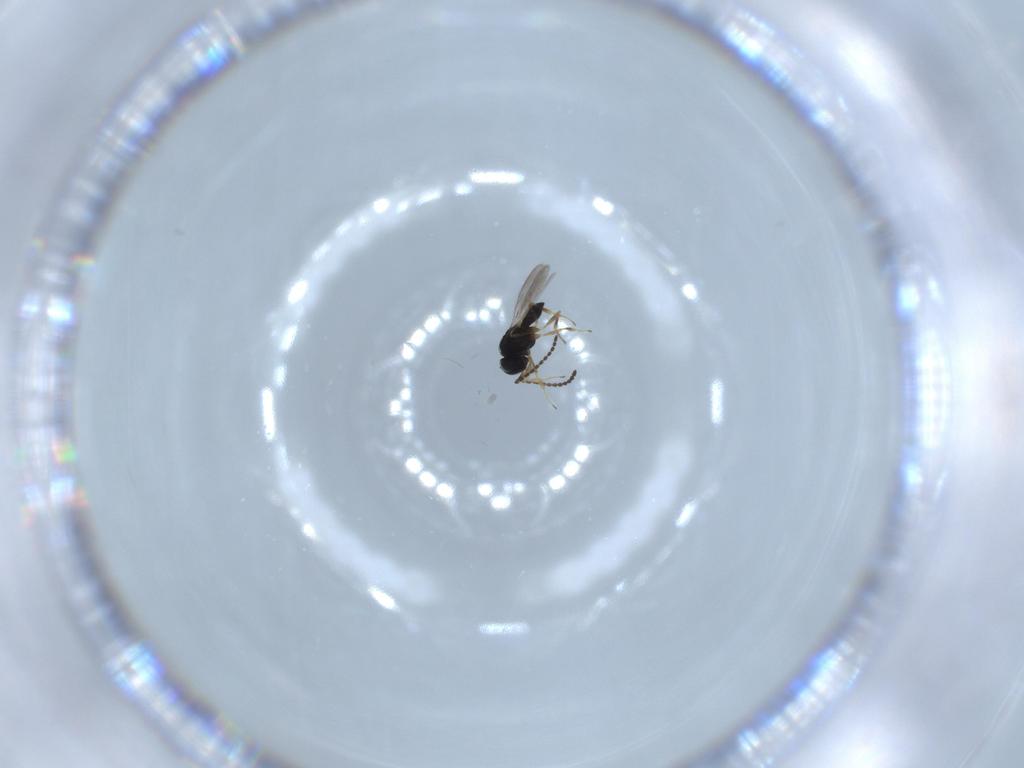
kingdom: Animalia
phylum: Arthropoda
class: Insecta
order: Hymenoptera
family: Scelionidae
